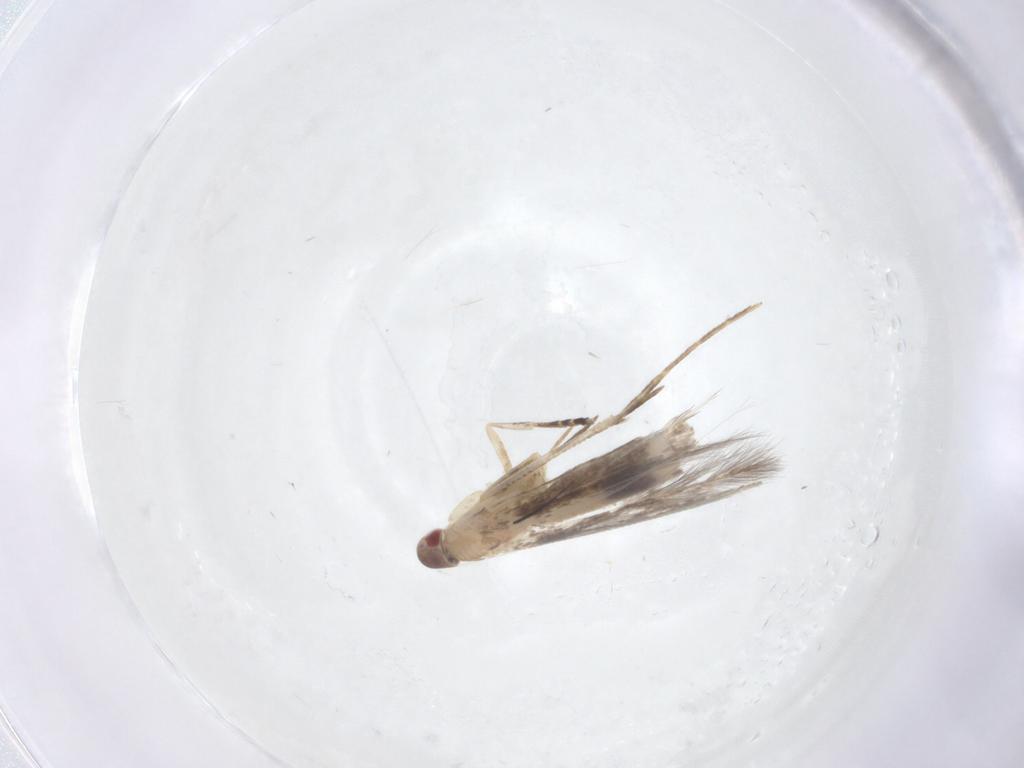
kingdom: Animalia
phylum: Arthropoda
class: Insecta
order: Lepidoptera
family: Cosmopterigidae
